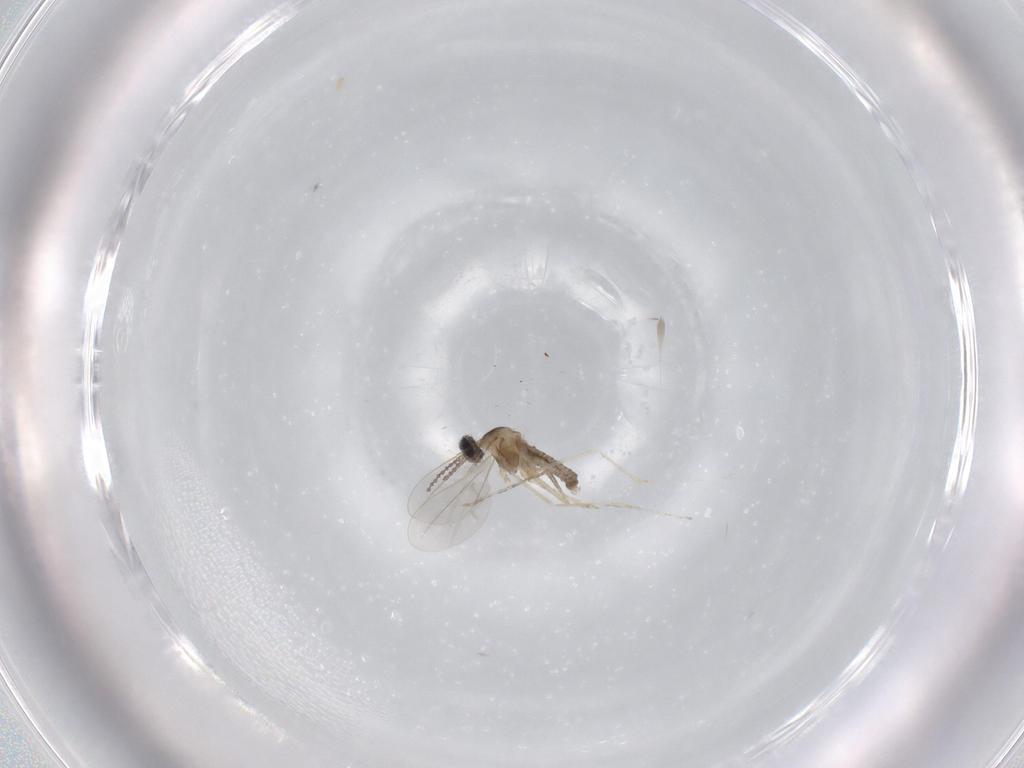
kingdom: Animalia
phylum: Arthropoda
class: Insecta
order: Diptera
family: Cecidomyiidae
